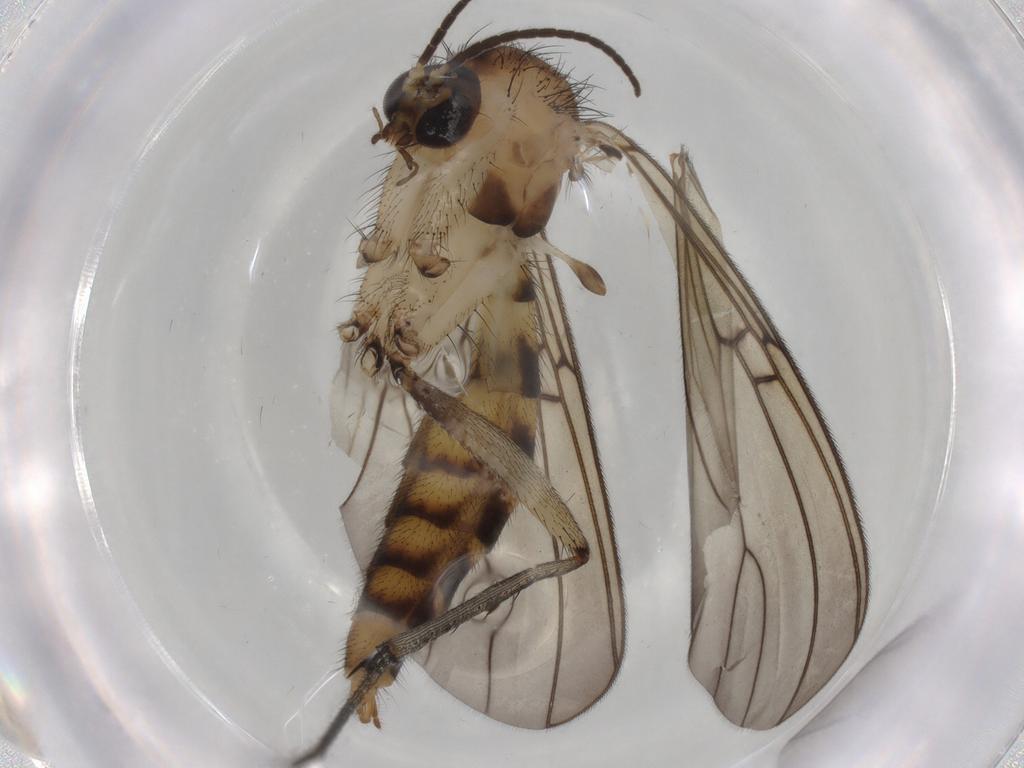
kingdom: Animalia
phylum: Arthropoda
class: Insecta
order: Diptera
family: Mycetophilidae
